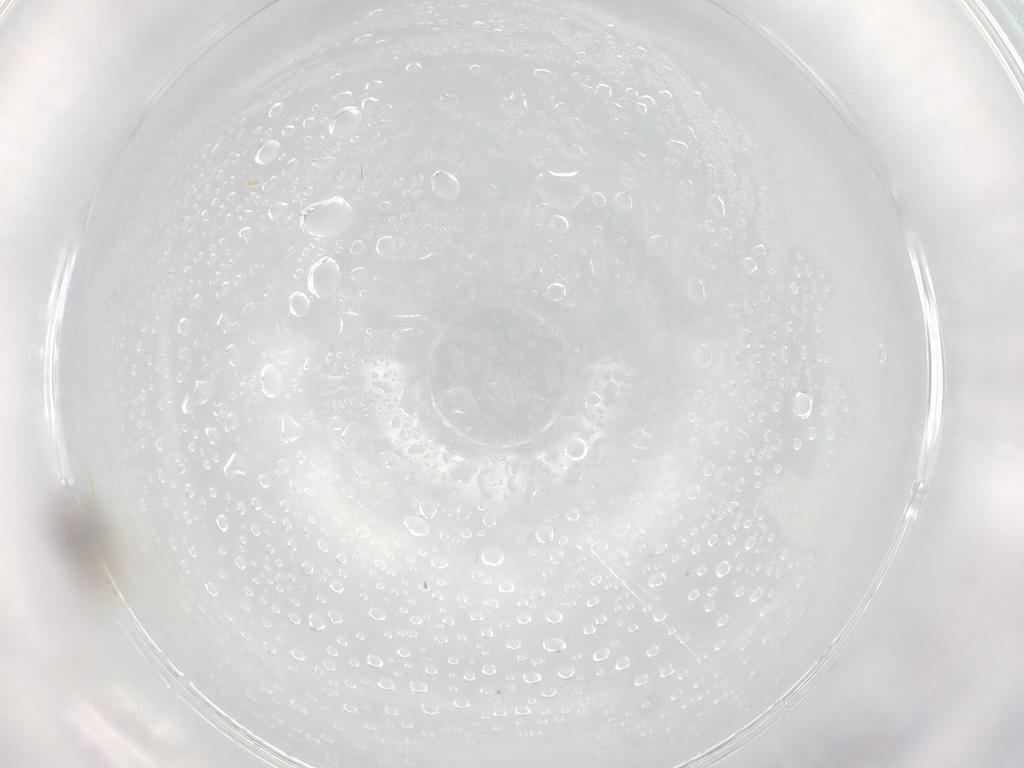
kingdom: Animalia
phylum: Arthropoda
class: Insecta
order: Diptera
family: Cecidomyiidae
